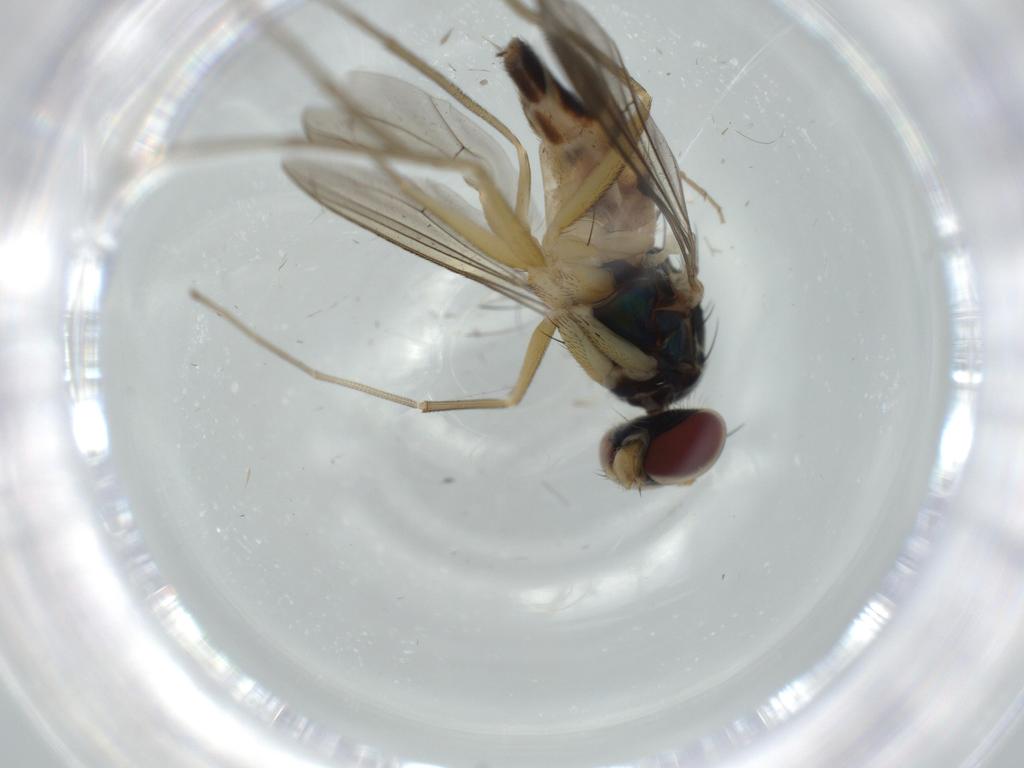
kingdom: Animalia
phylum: Arthropoda
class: Insecta
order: Diptera
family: Dolichopodidae
